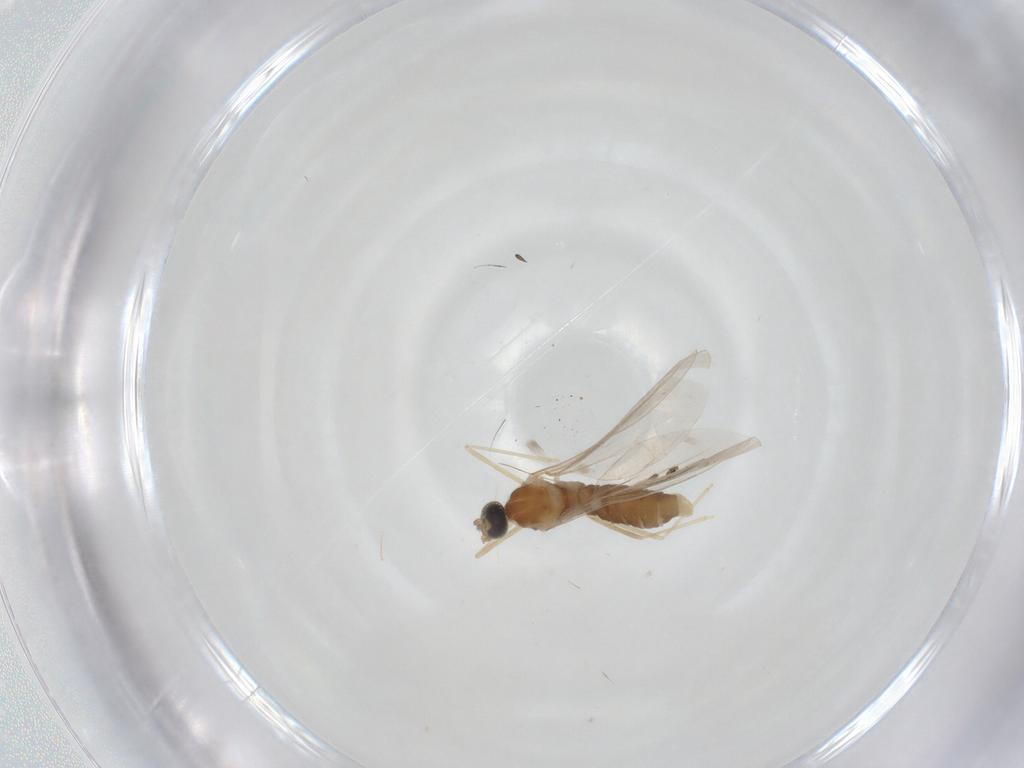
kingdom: Animalia
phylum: Arthropoda
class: Insecta
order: Diptera
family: Cecidomyiidae
